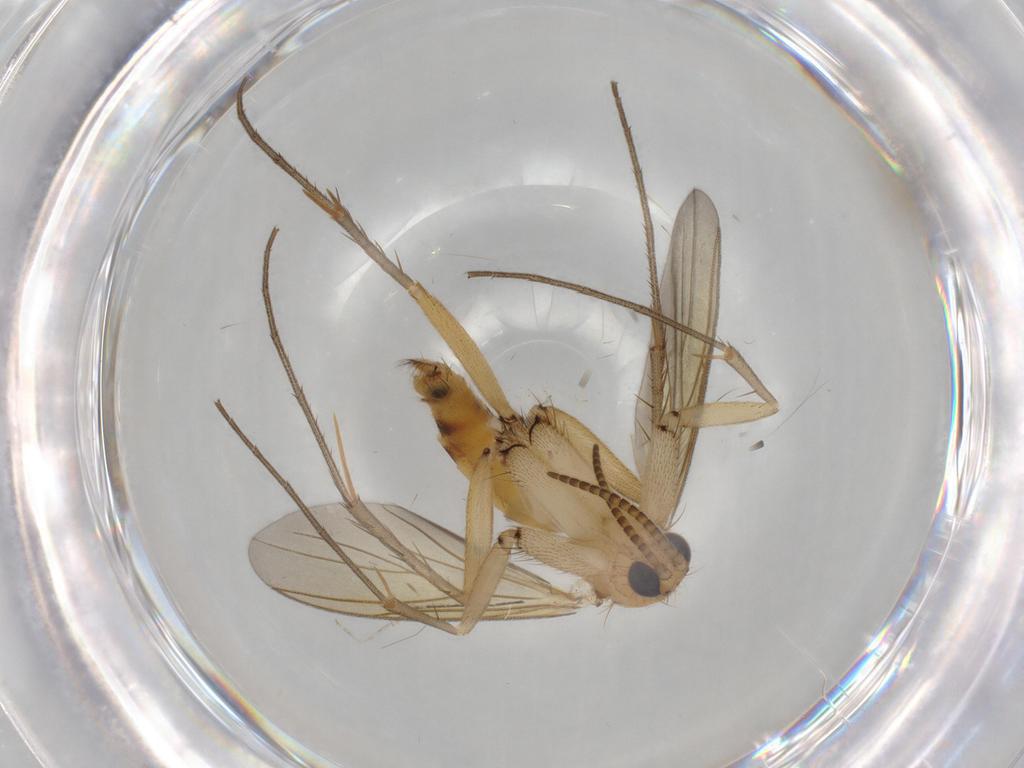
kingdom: Animalia
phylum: Arthropoda
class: Insecta
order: Diptera
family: Mycetophilidae
